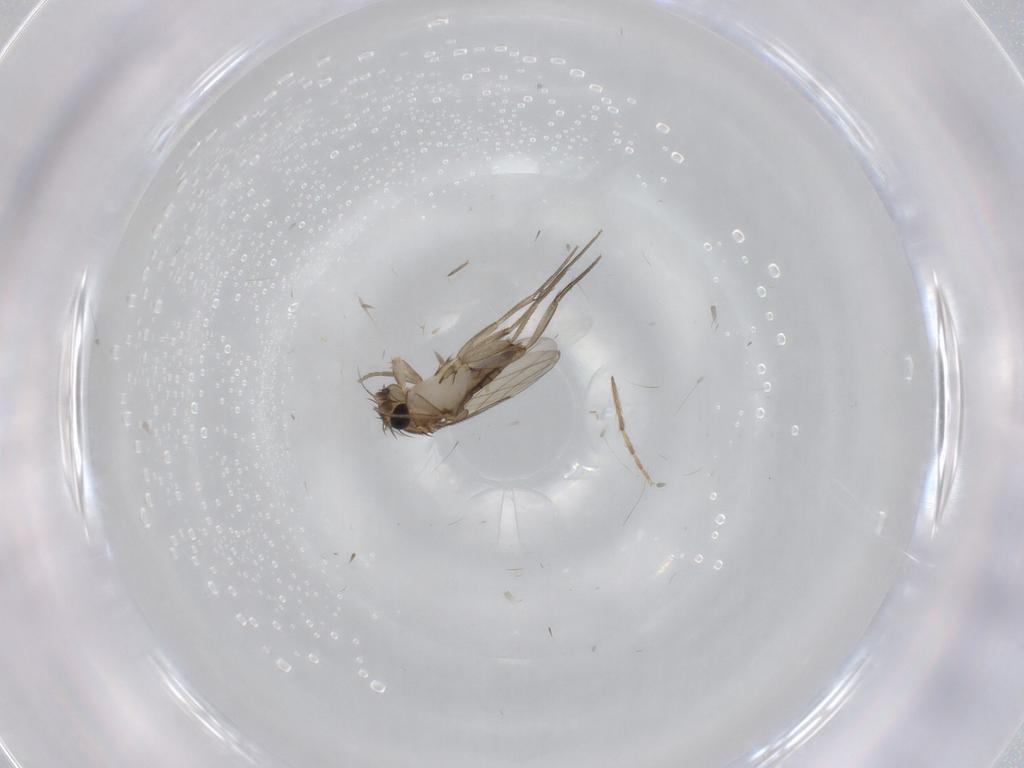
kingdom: Animalia
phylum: Arthropoda
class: Insecta
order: Diptera
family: Chironomidae
